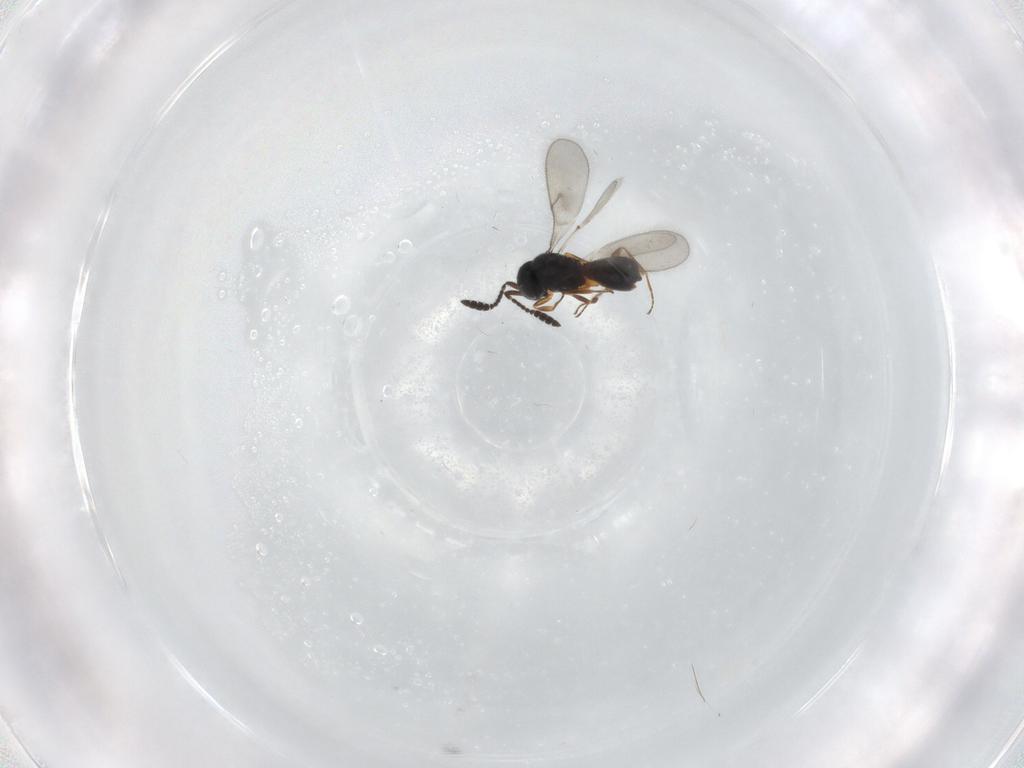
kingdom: Animalia
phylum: Arthropoda
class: Insecta
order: Hymenoptera
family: Scelionidae
